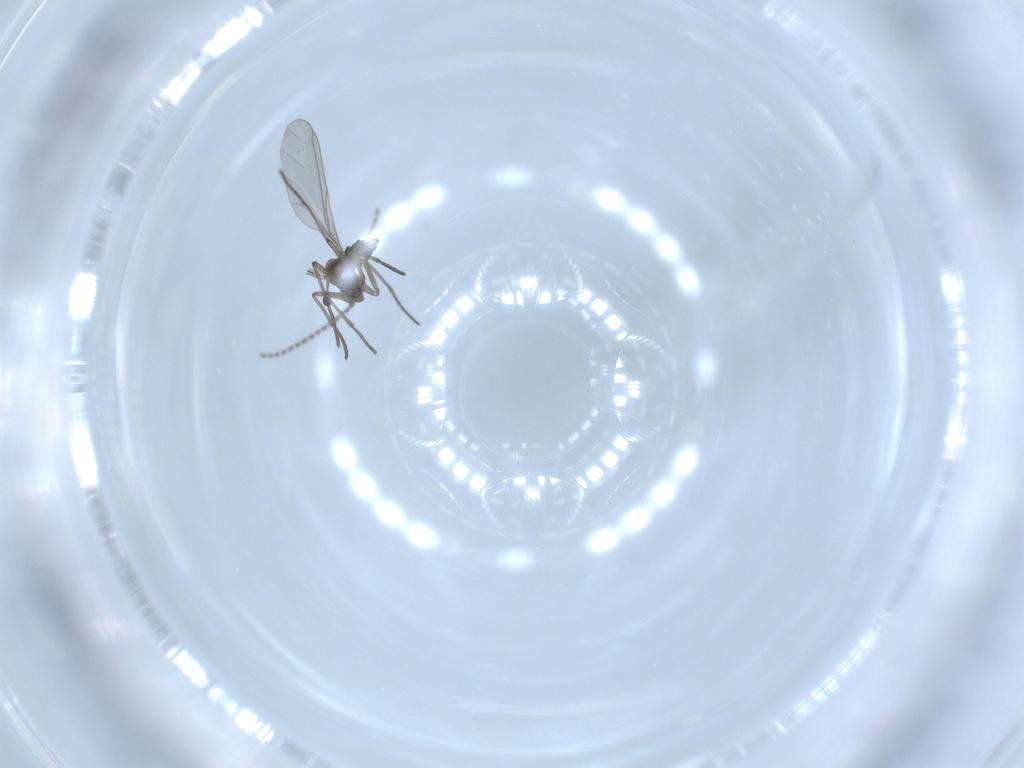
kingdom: Animalia
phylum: Arthropoda
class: Insecta
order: Diptera
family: Sciaridae
